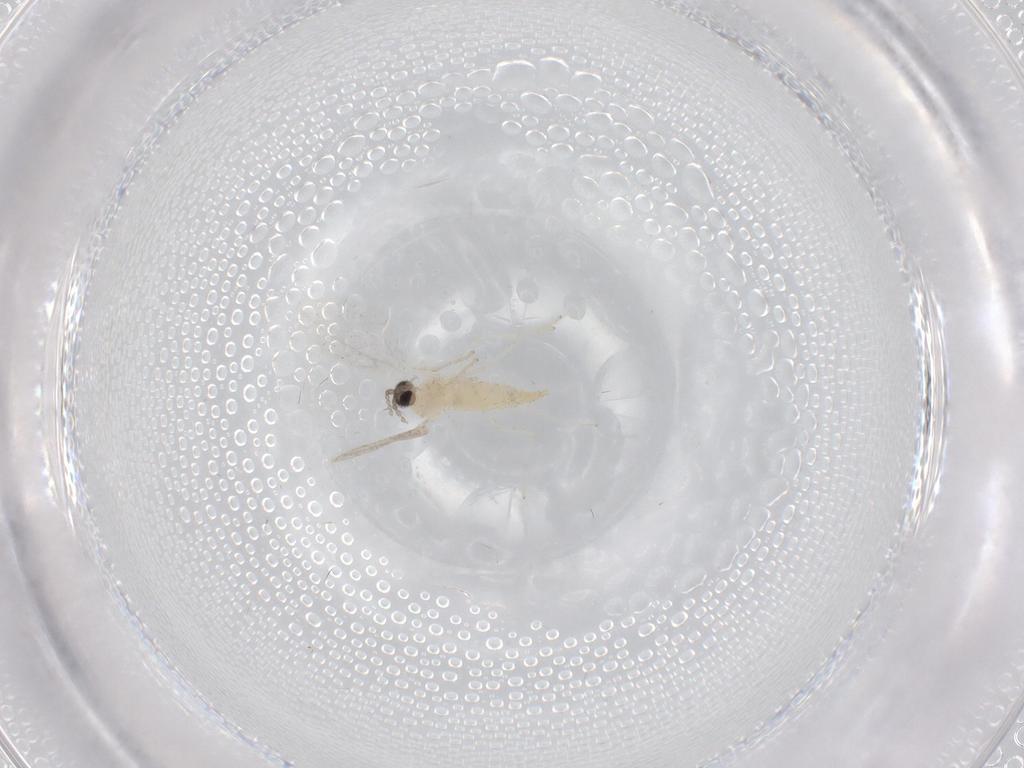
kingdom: Animalia
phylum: Arthropoda
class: Insecta
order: Diptera
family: Cecidomyiidae
